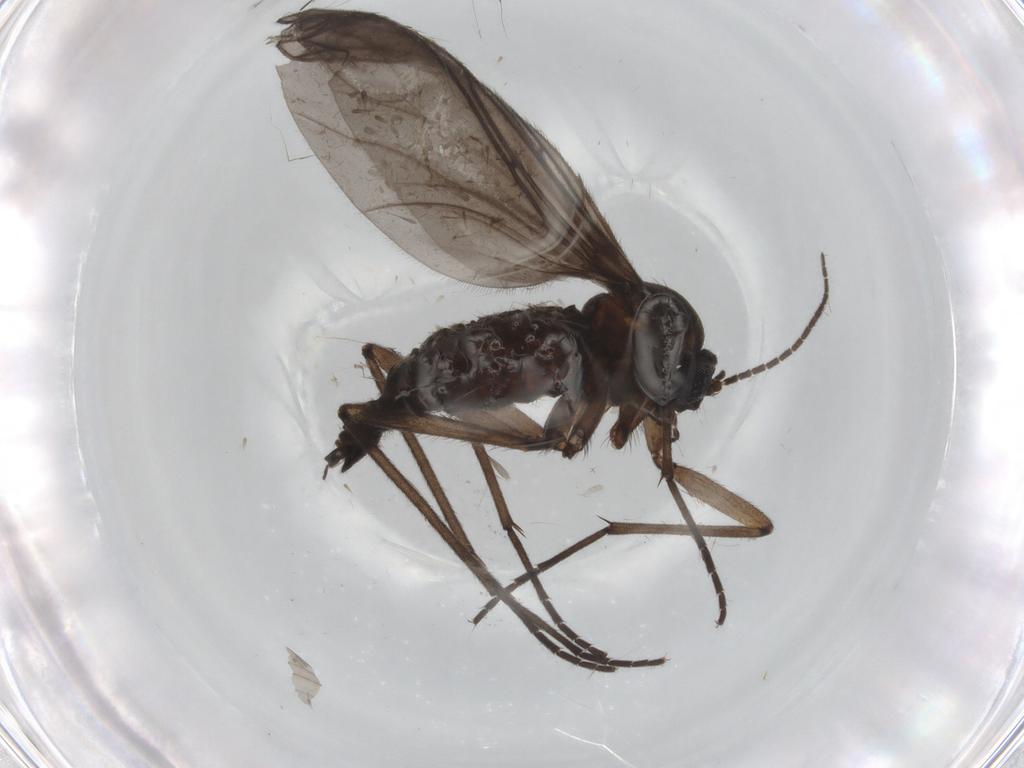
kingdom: Animalia
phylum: Arthropoda
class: Insecta
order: Diptera
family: Sciaridae
